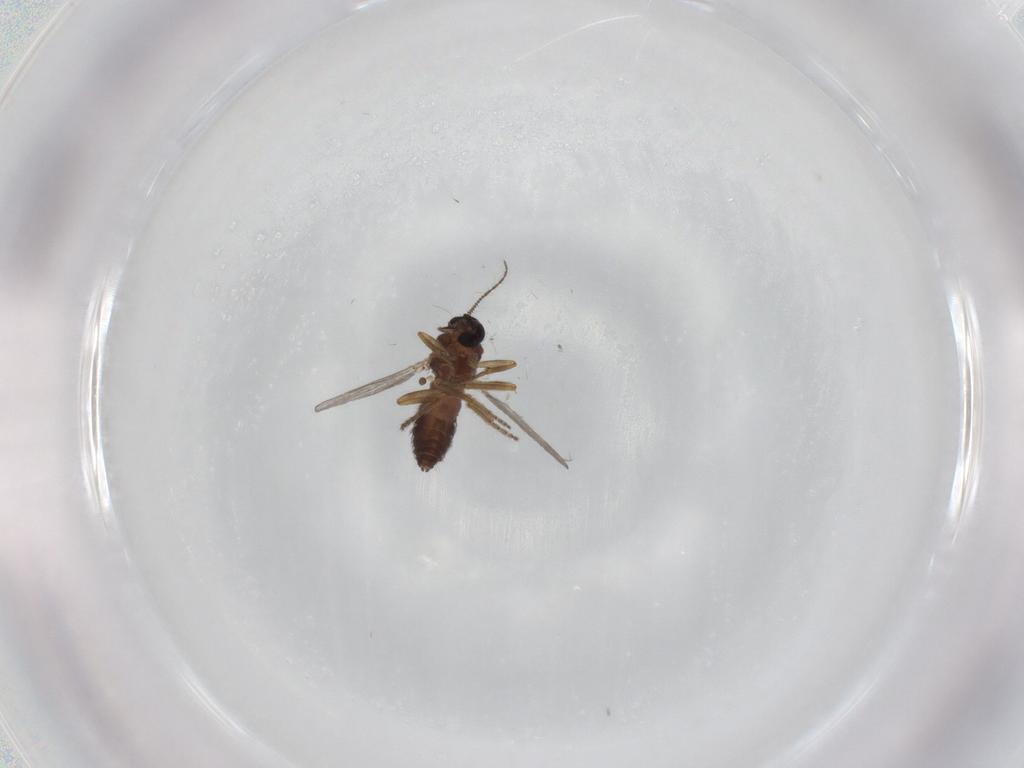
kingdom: Animalia
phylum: Arthropoda
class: Insecta
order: Diptera
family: Ceratopogonidae
